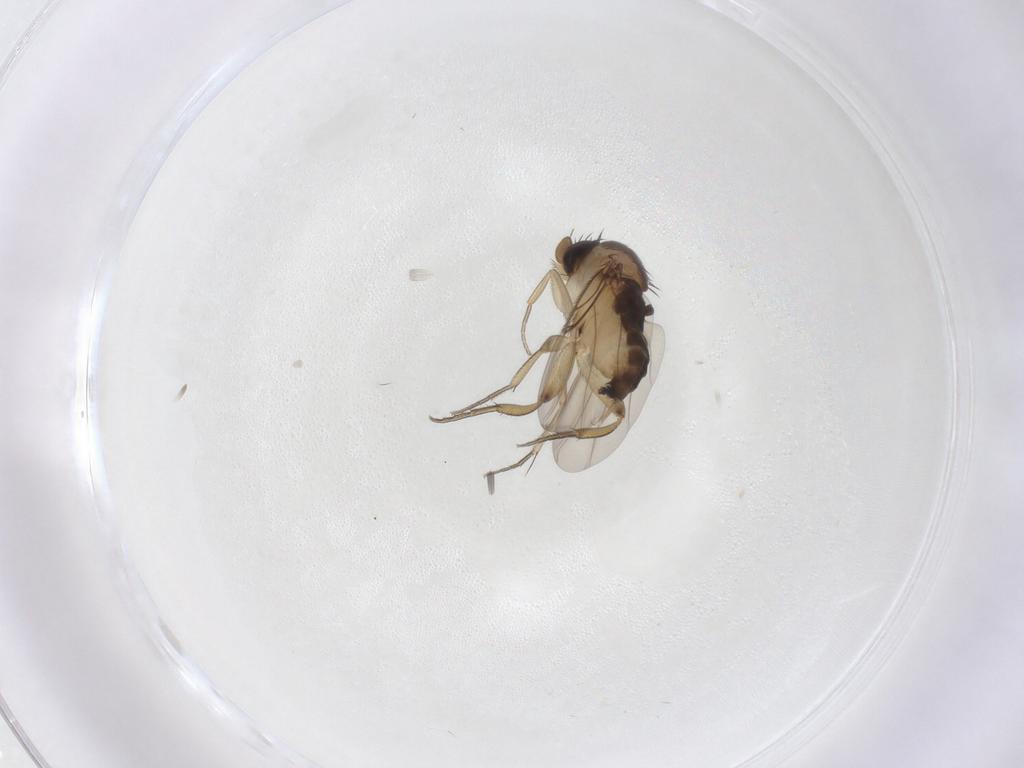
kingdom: Animalia
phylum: Arthropoda
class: Insecta
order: Diptera
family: Phoridae
